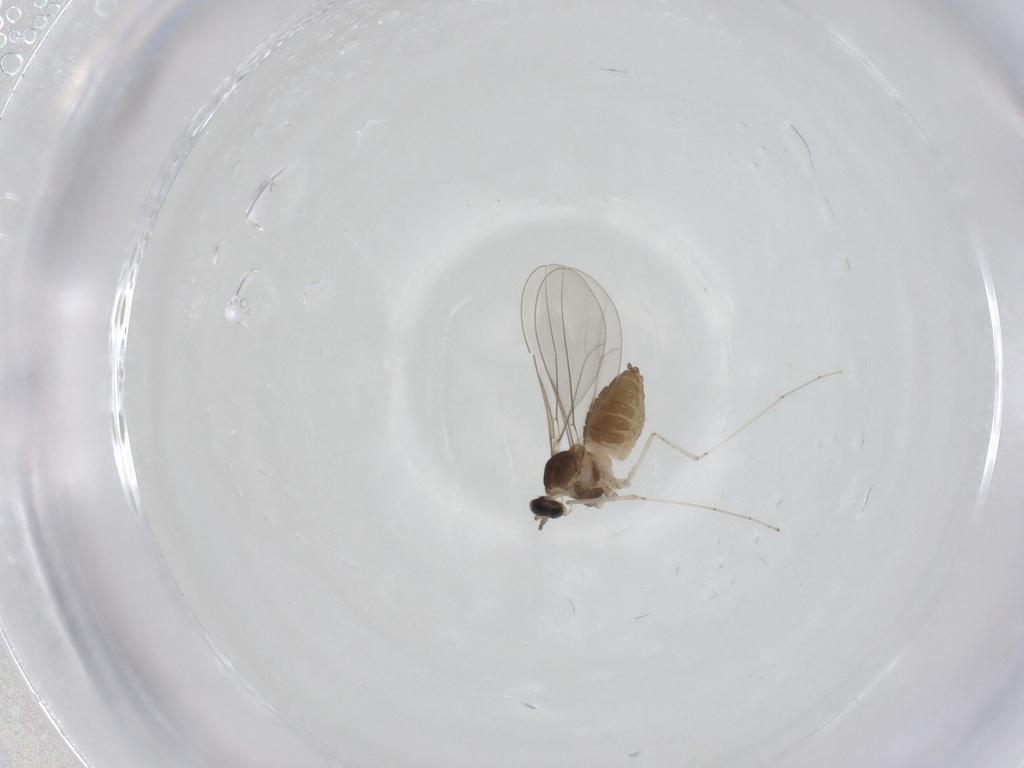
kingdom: Animalia
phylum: Arthropoda
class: Insecta
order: Diptera
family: Cecidomyiidae
